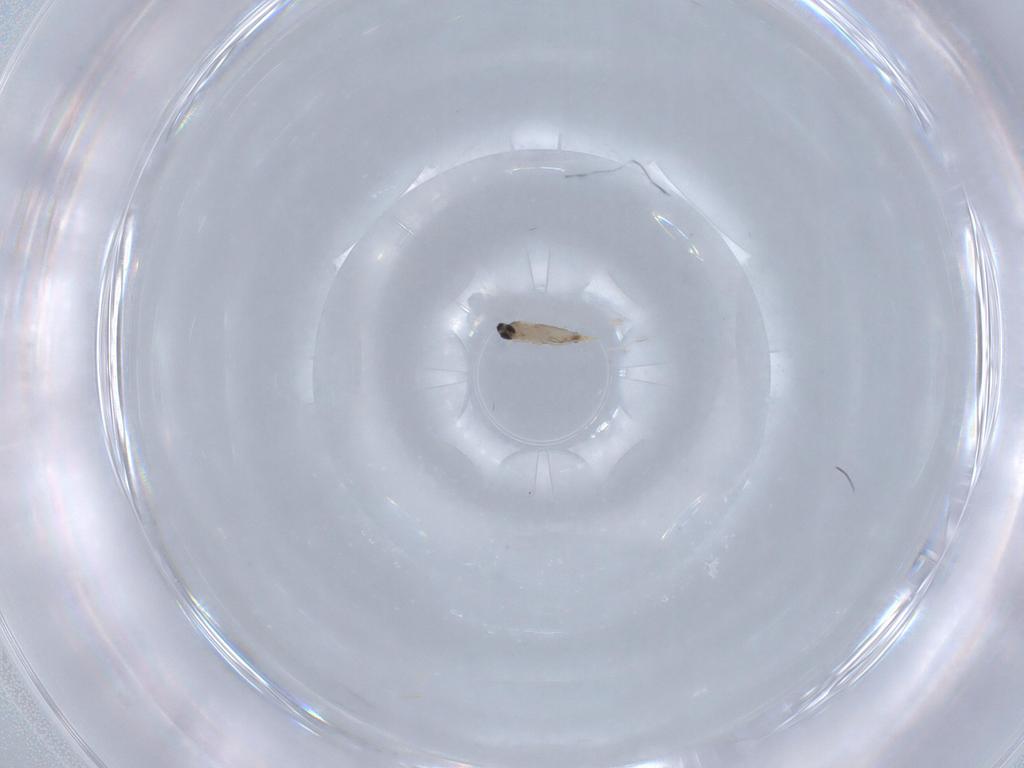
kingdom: Animalia
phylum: Arthropoda
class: Insecta
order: Diptera
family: Cecidomyiidae
